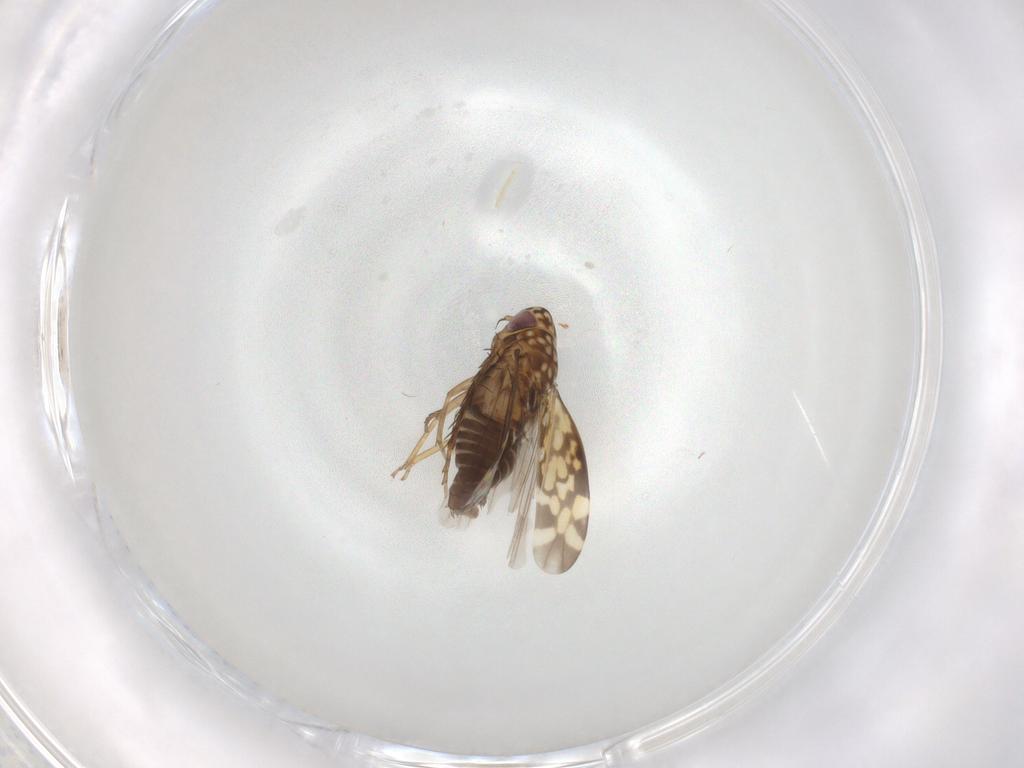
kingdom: Animalia
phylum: Arthropoda
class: Insecta
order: Hemiptera
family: Cicadellidae
